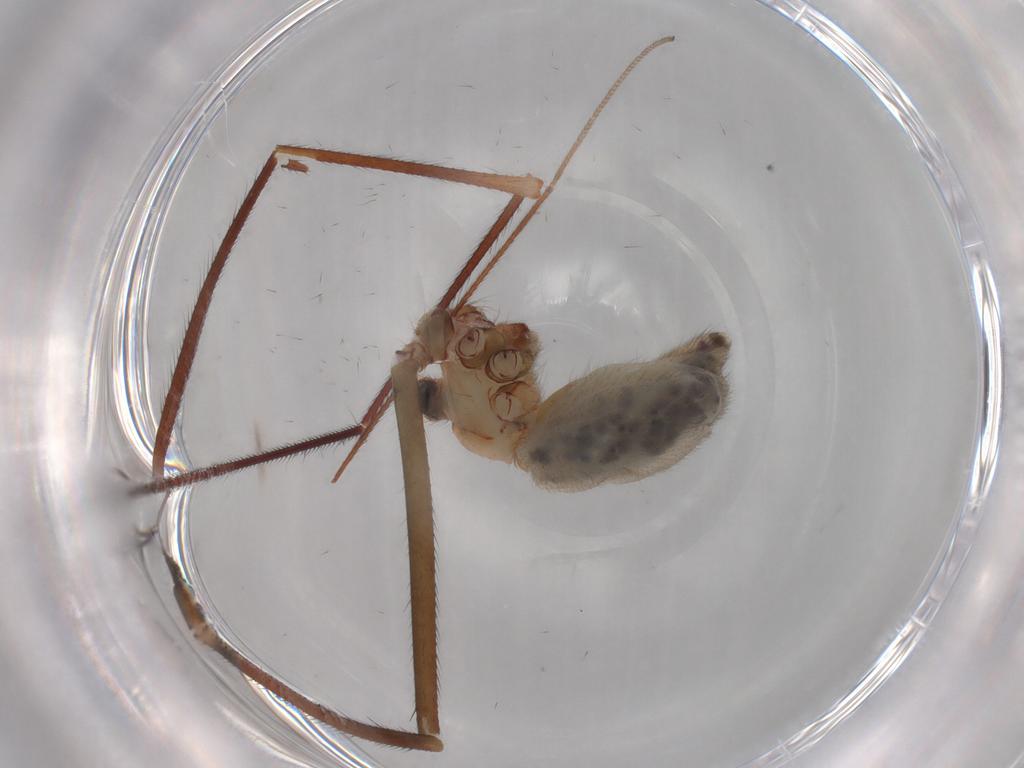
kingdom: Animalia
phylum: Arthropoda
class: Arachnida
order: Araneae
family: Pholcidae
